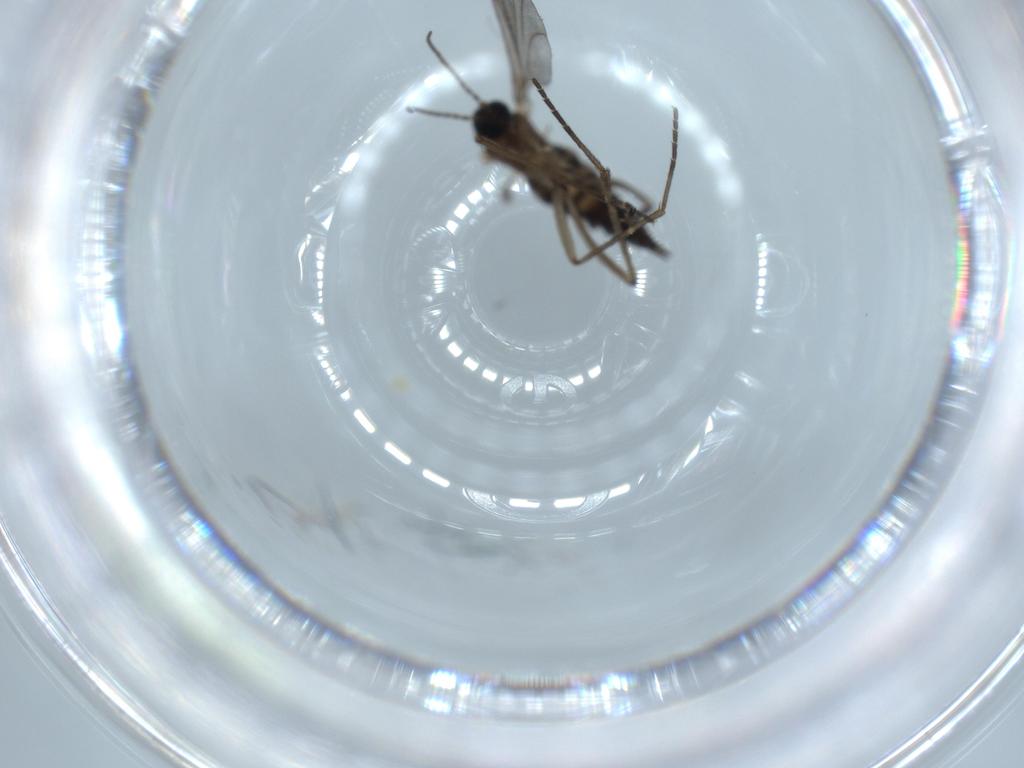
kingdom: Animalia
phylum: Arthropoda
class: Insecta
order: Diptera
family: Sciaridae
